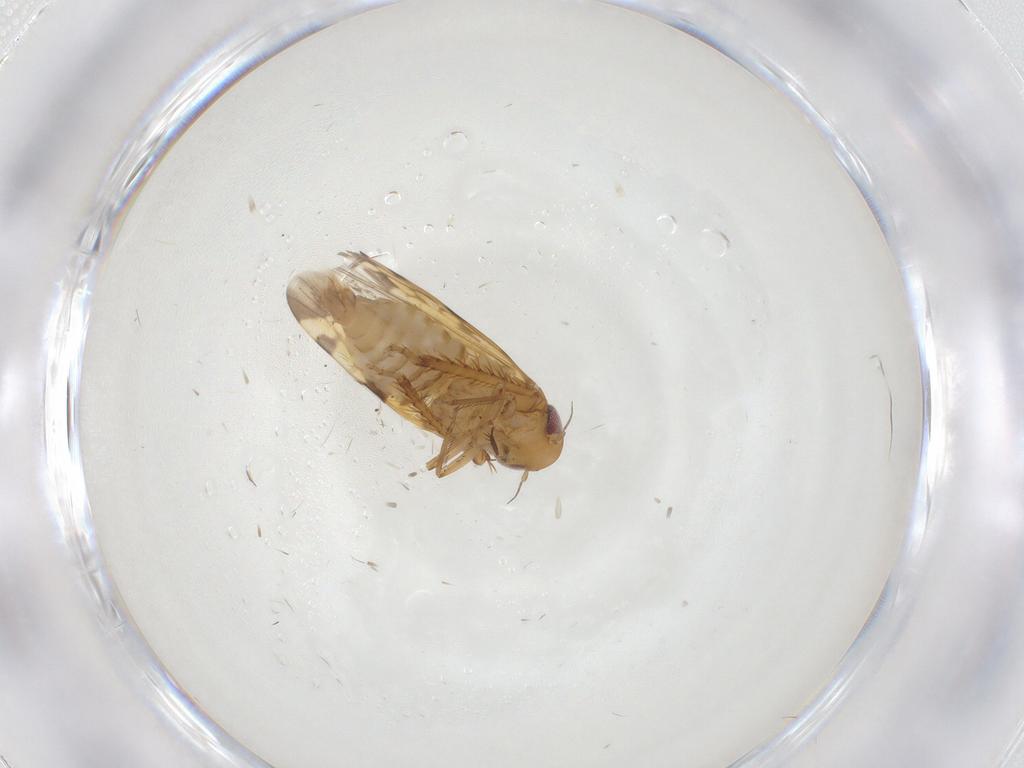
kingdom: Animalia
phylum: Arthropoda
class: Insecta
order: Hemiptera
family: Cicadellidae
